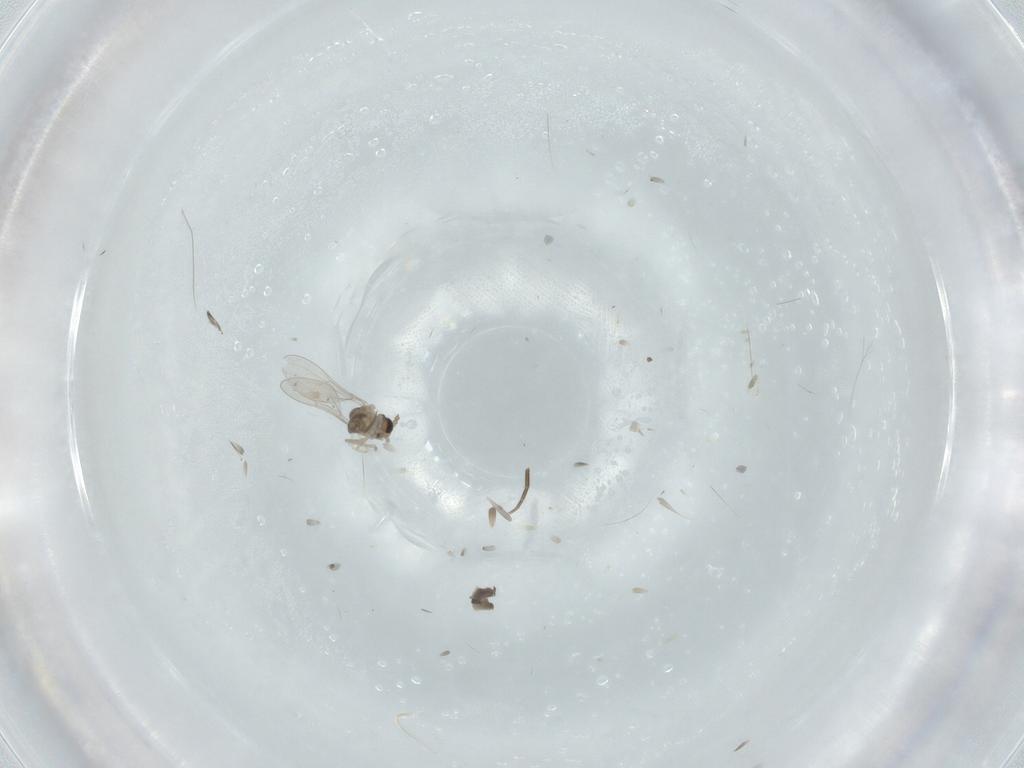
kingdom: Animalia
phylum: Arthropoda
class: Insecta
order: Diptera
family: Cecidomyiidae
